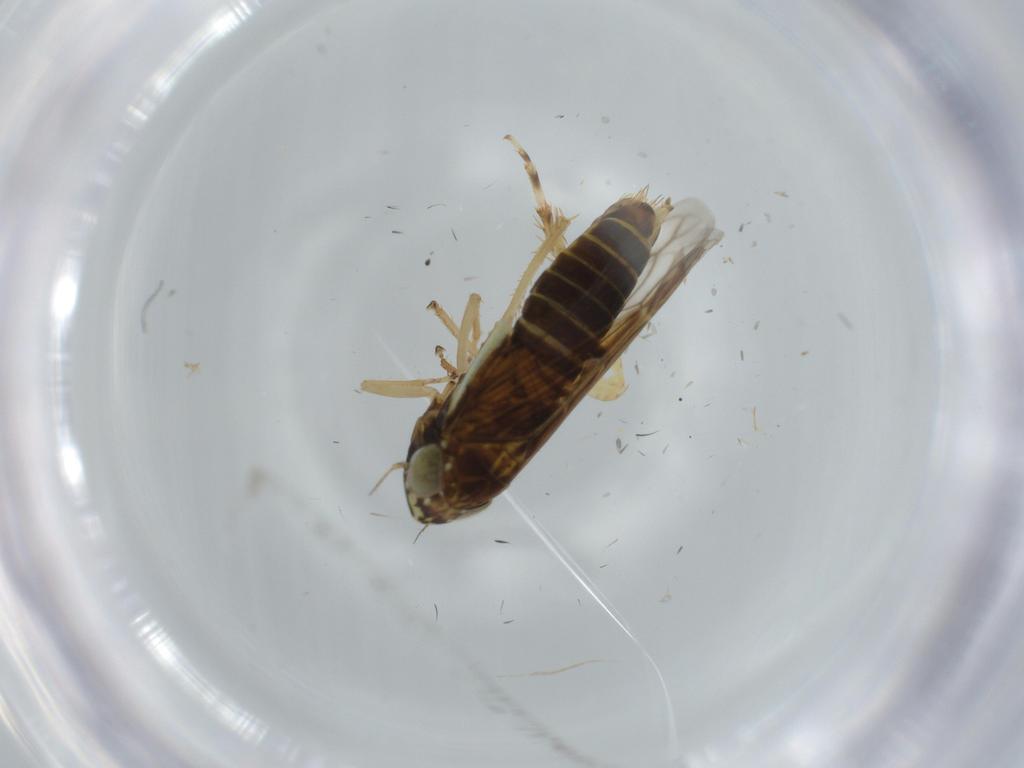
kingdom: Animalia
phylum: Arthropoda
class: Insecta
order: Hemiptera
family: Cicadellidae
